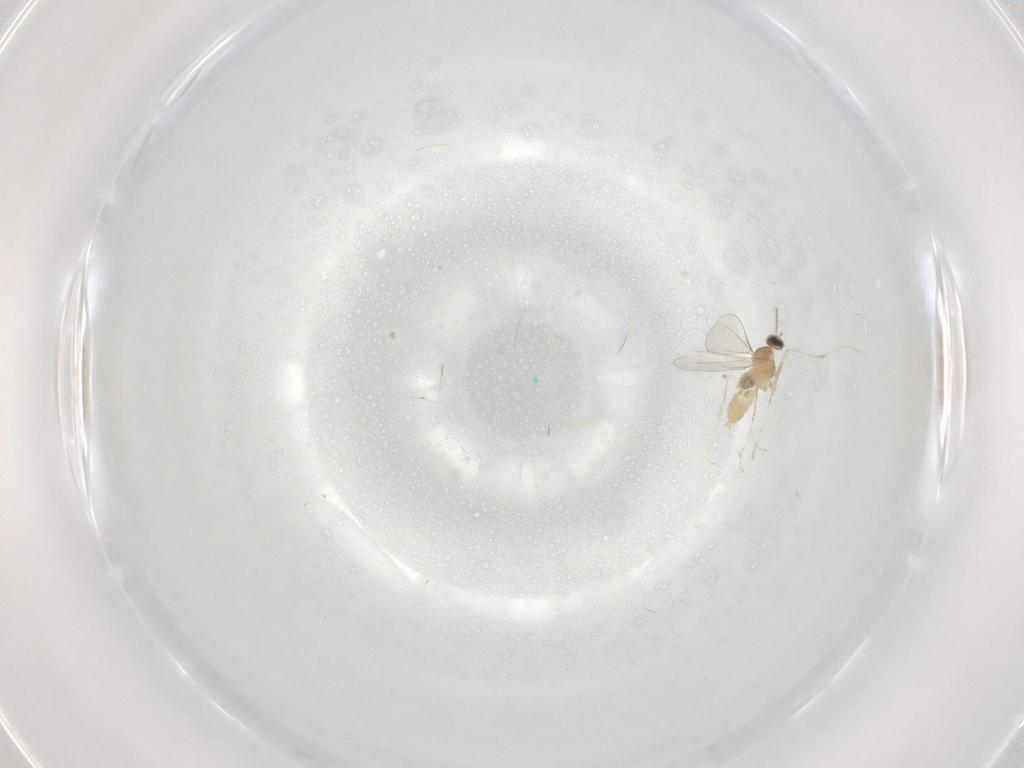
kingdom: Animalia
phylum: Arthropoda
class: Insecta
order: Diptera
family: Cecidomyiidae
